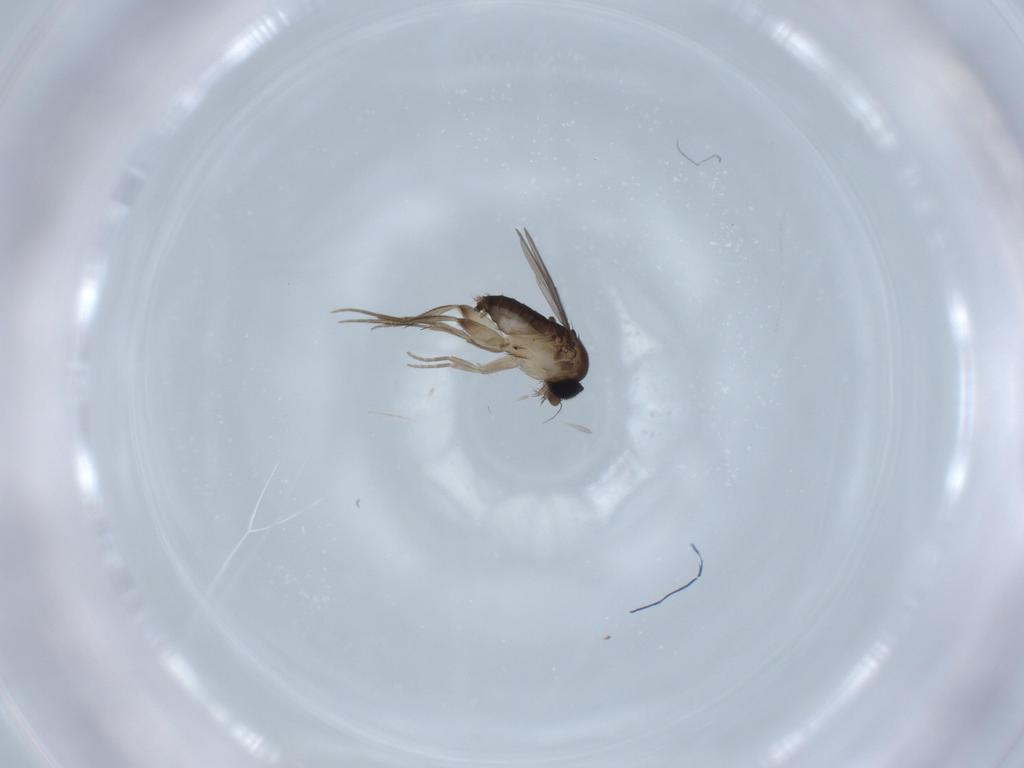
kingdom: Animalia
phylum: Arthropoda
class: Insecta
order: Diptera
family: Phoridae
